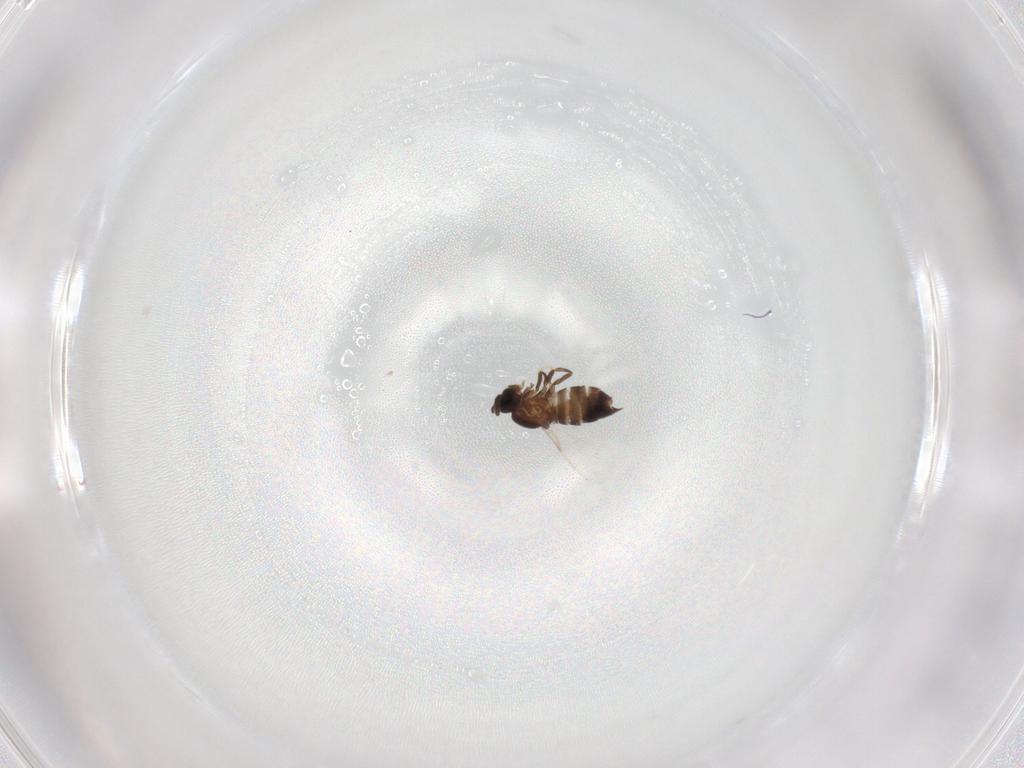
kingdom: Animalia
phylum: Arthropoda
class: Insecta
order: Diptera
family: Scatopsidae
